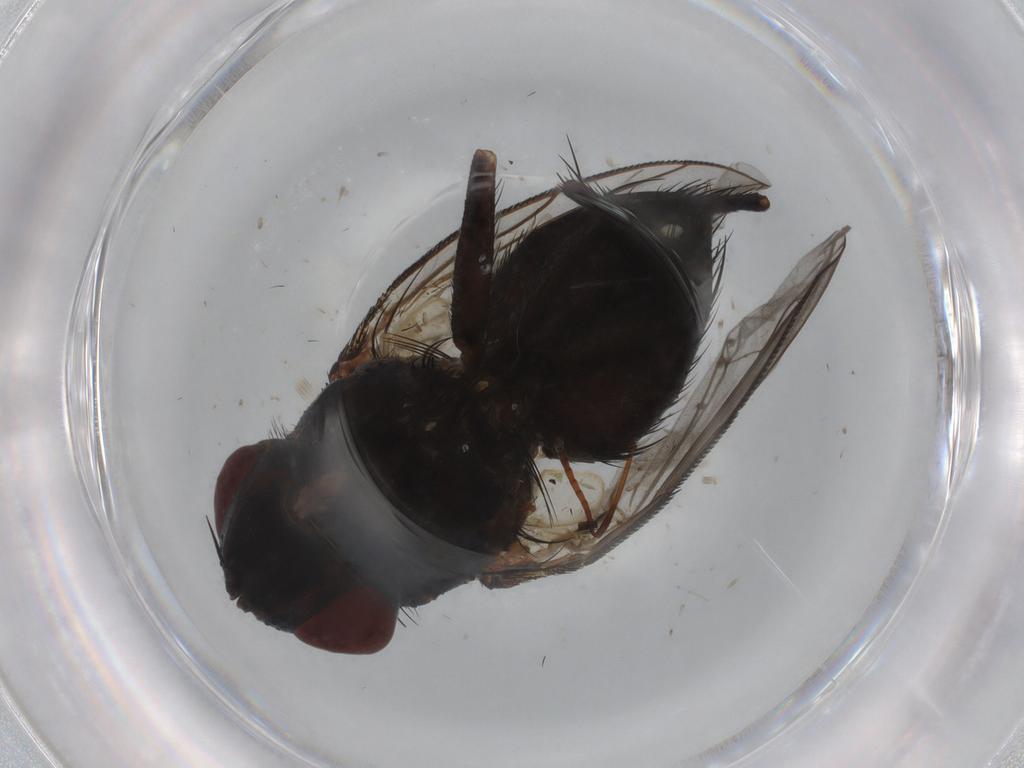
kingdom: Animalia
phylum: Arthropoda
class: Insecta
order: Diptera
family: Tachinidae
